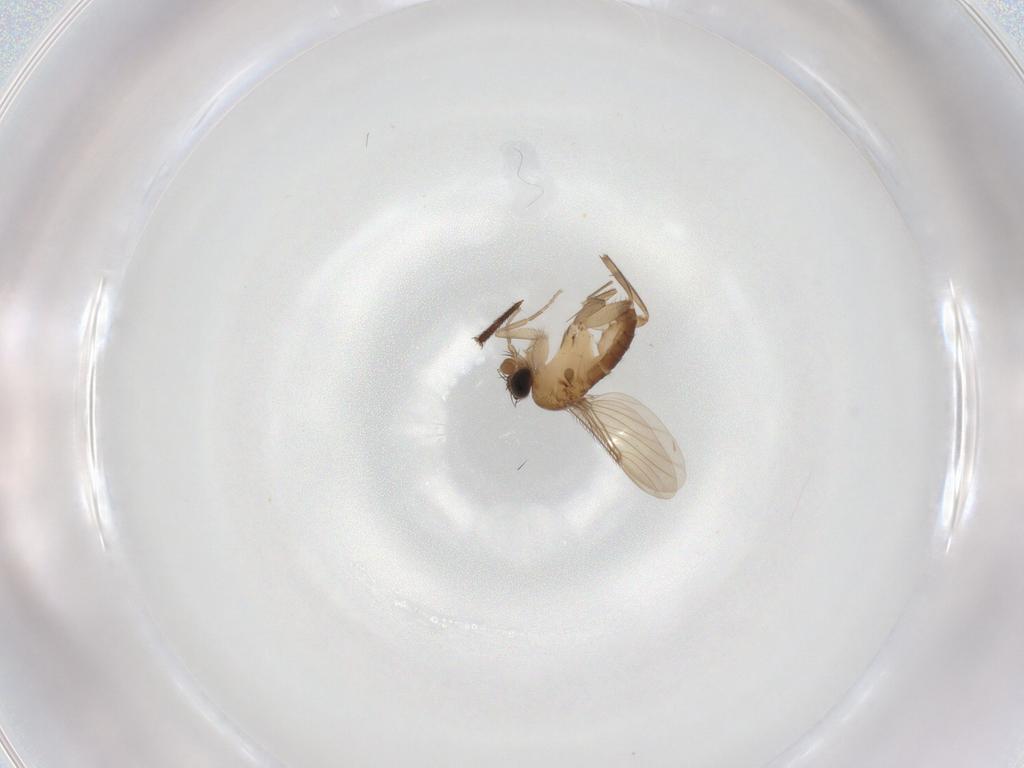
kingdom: Animalia
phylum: Arthropoda
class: Insecta
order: Diptera
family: Phoridae
